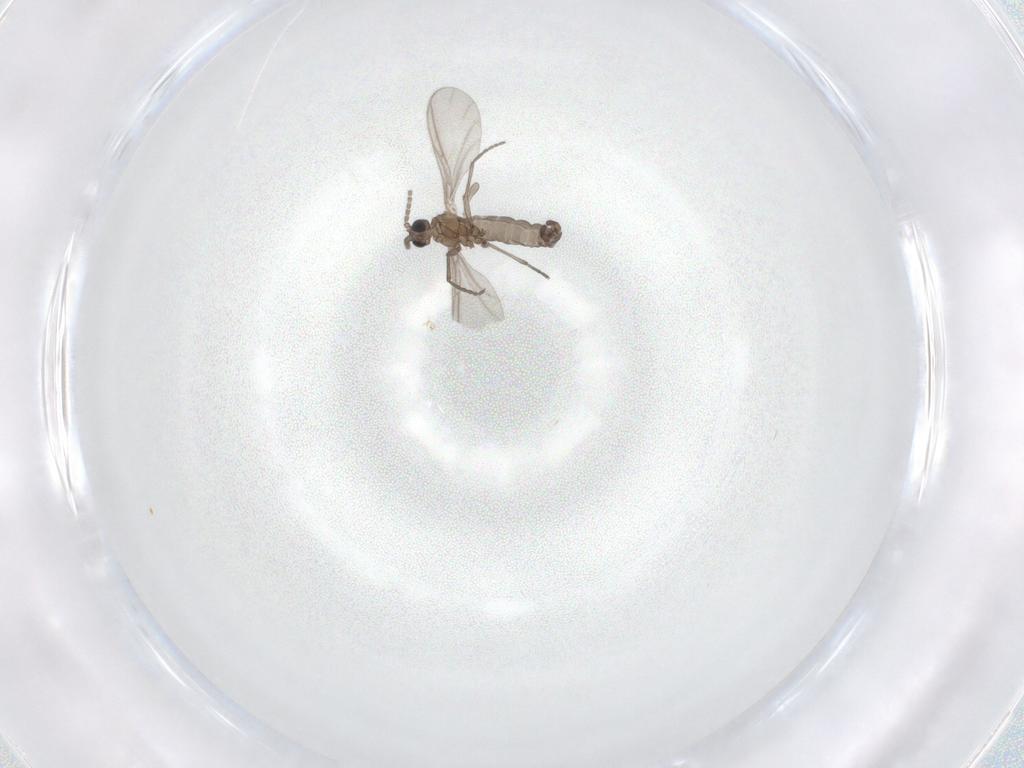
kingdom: Animalia
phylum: Arthropoda
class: Insecta
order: Diptera
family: Sciaridae
